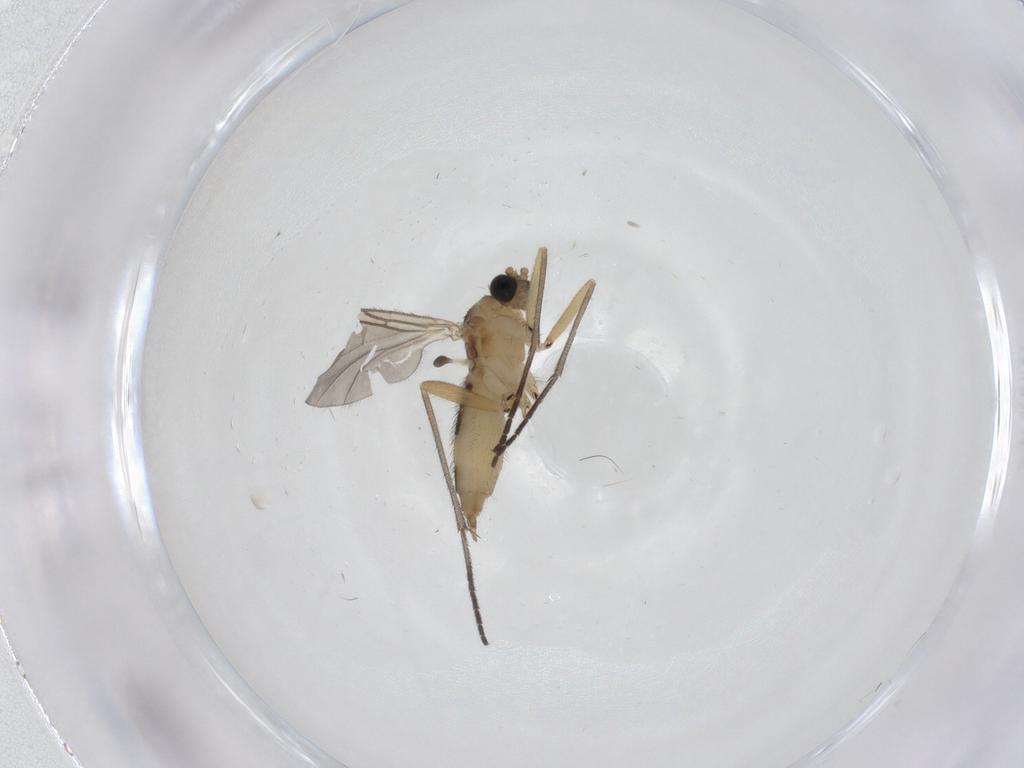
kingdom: Animalia
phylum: Arthropoda
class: Insecta
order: Diptera
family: Sciaridae
